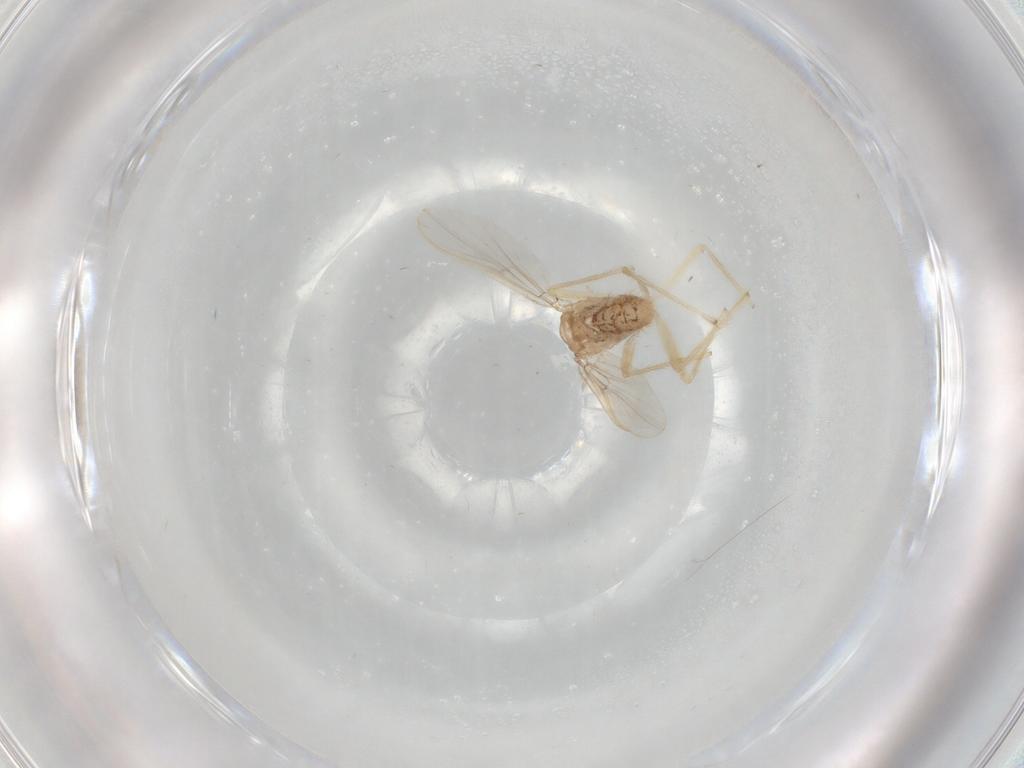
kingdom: Animalia
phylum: Arthropoda
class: Insecta
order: Diptera
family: Chironomidae
